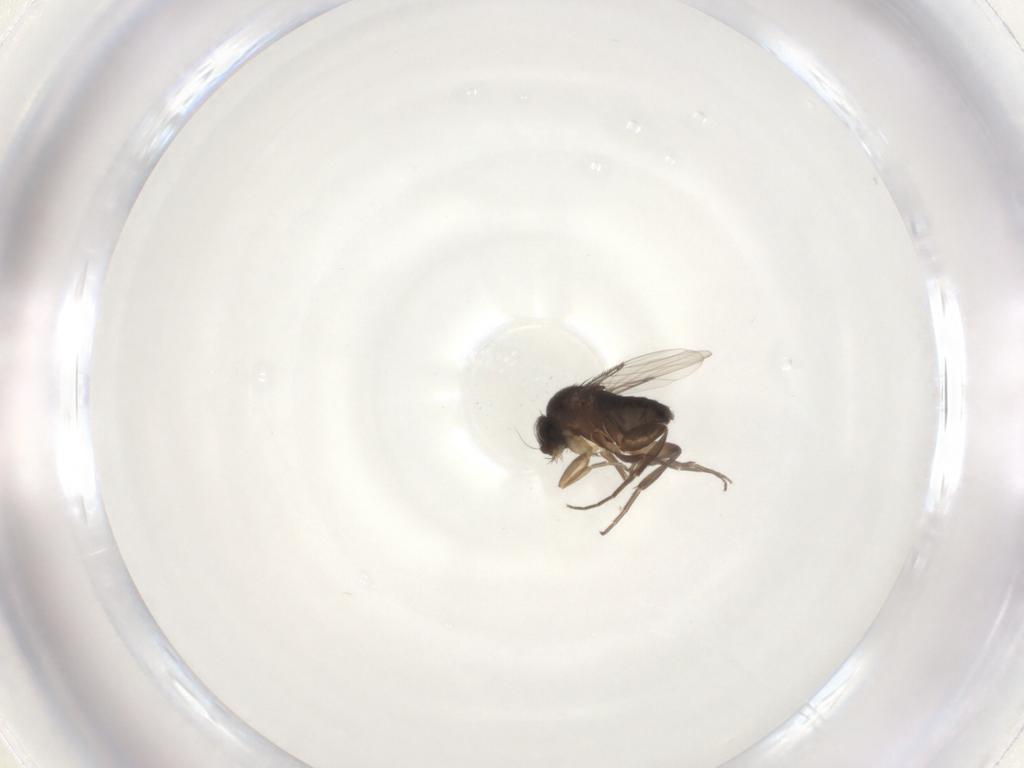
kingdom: Animalia
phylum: Arthropoda
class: Insecta
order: Diptera
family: Phoridae
